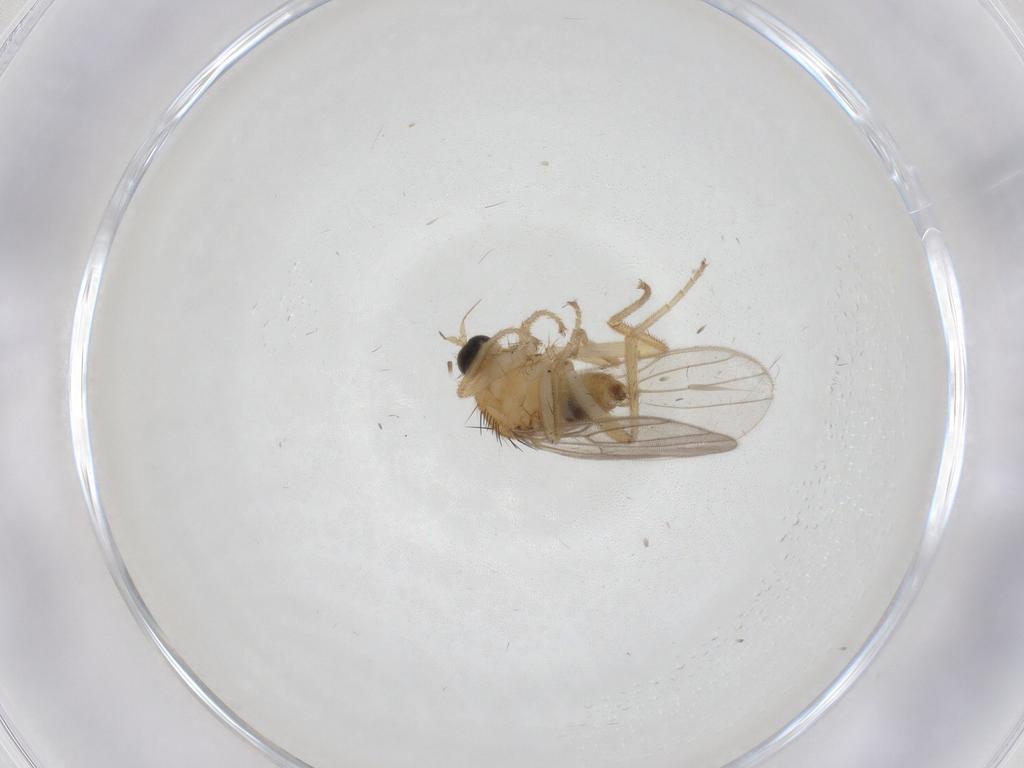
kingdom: Animalia
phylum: Arthropoda
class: Insecta
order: Diptera
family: Hybotidae
